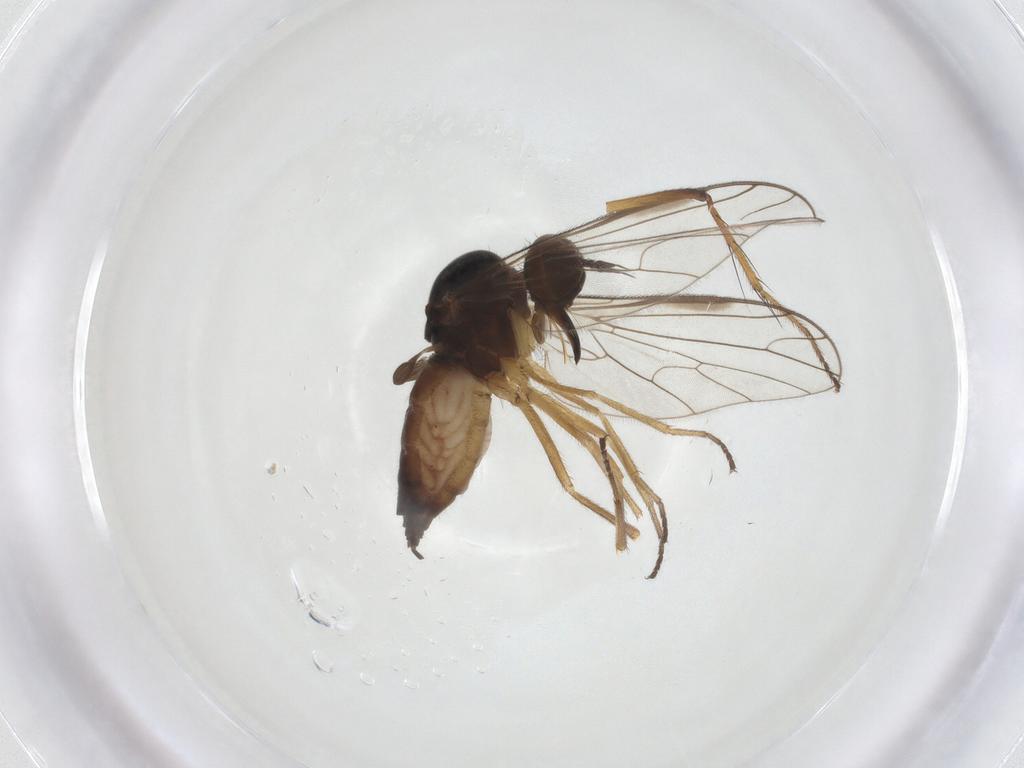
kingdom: Animalia
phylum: Arthropoda
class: Insecta
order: Diptera
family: Empididae
